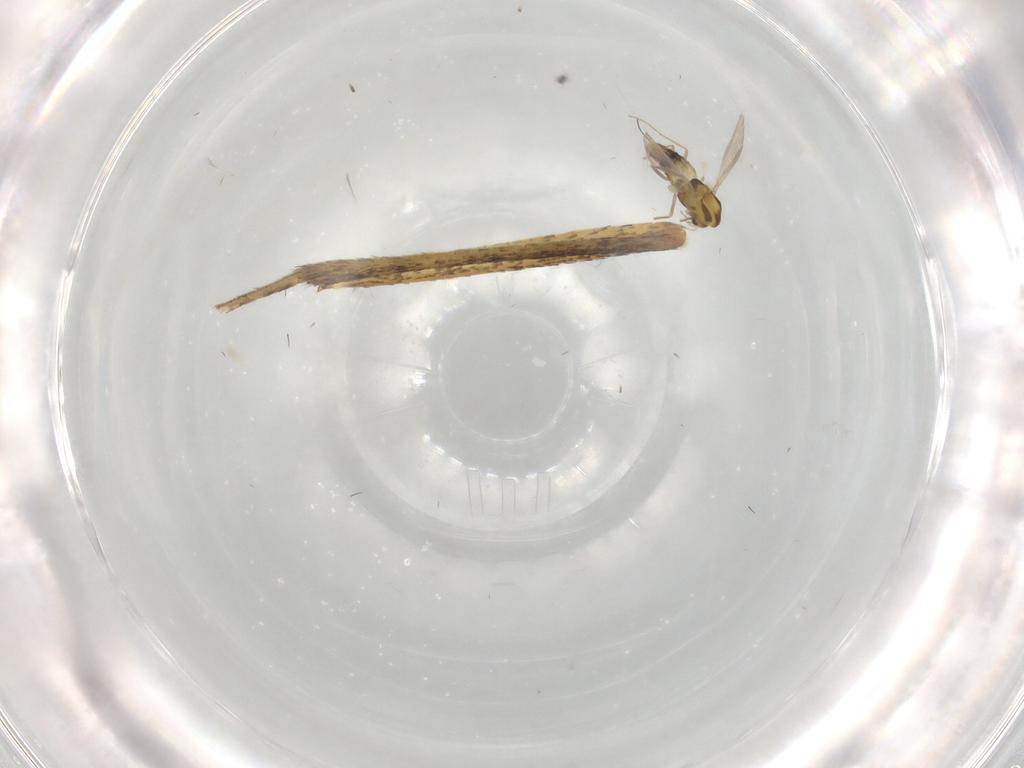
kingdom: Animalia
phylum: Arthropoda
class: Insecta
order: Diptera
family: Culicidae
